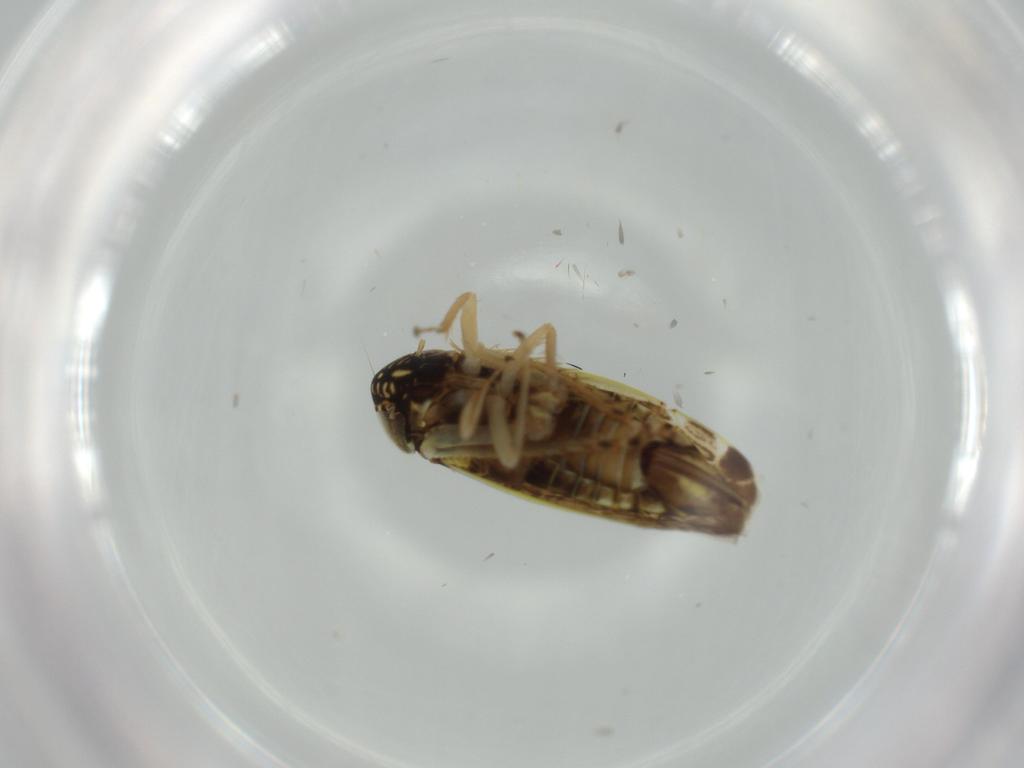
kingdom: Animalia
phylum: Arthropoda
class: Insecta
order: Hemiptera
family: Cicadellidae
